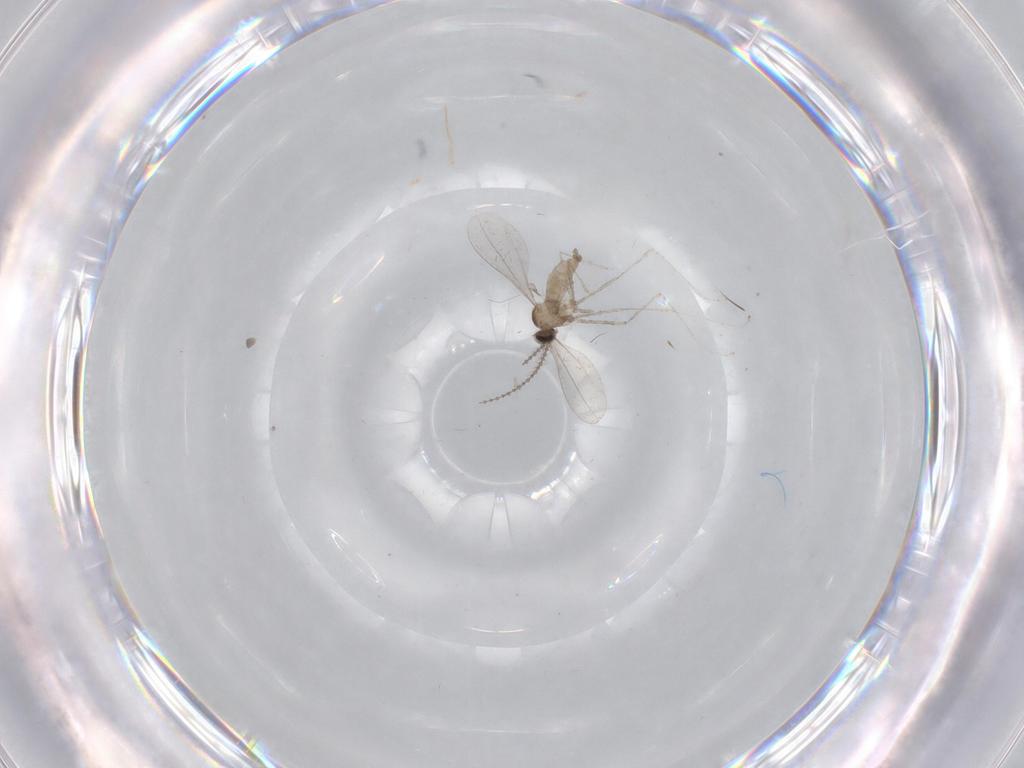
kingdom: Animalia
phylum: Arthropoda
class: Insecta
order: Diptera
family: Cecidomyiidae
